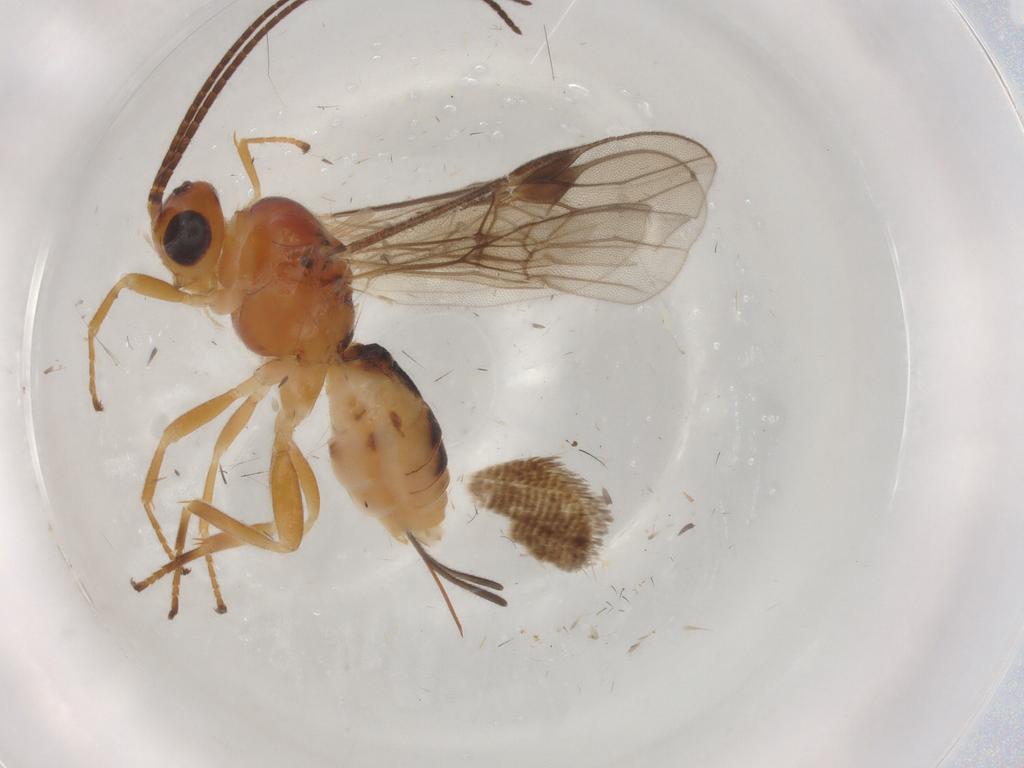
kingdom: Animalia
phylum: Arthropoda
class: Insecta
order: Hymenoptera
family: Braconidae
